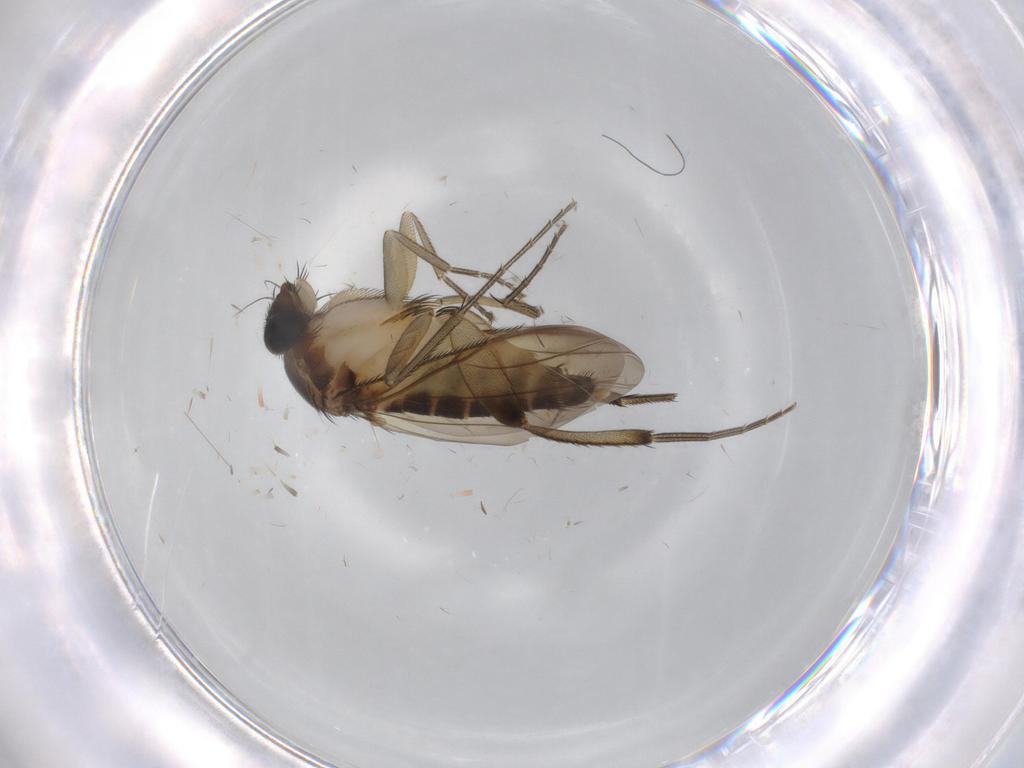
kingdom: Animalia
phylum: Arthropoda
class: Insecta
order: Diptera
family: Phoridae
